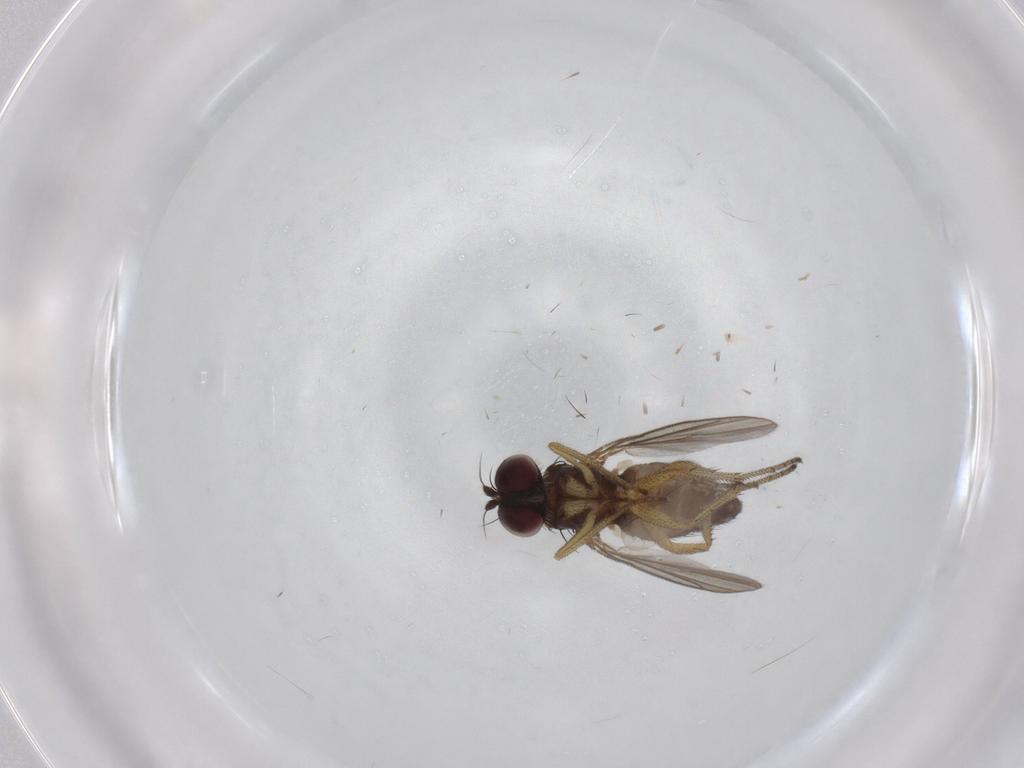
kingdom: Animalia
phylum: Arthropoda
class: Insecta
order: Diptera
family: Dolichopodidae
